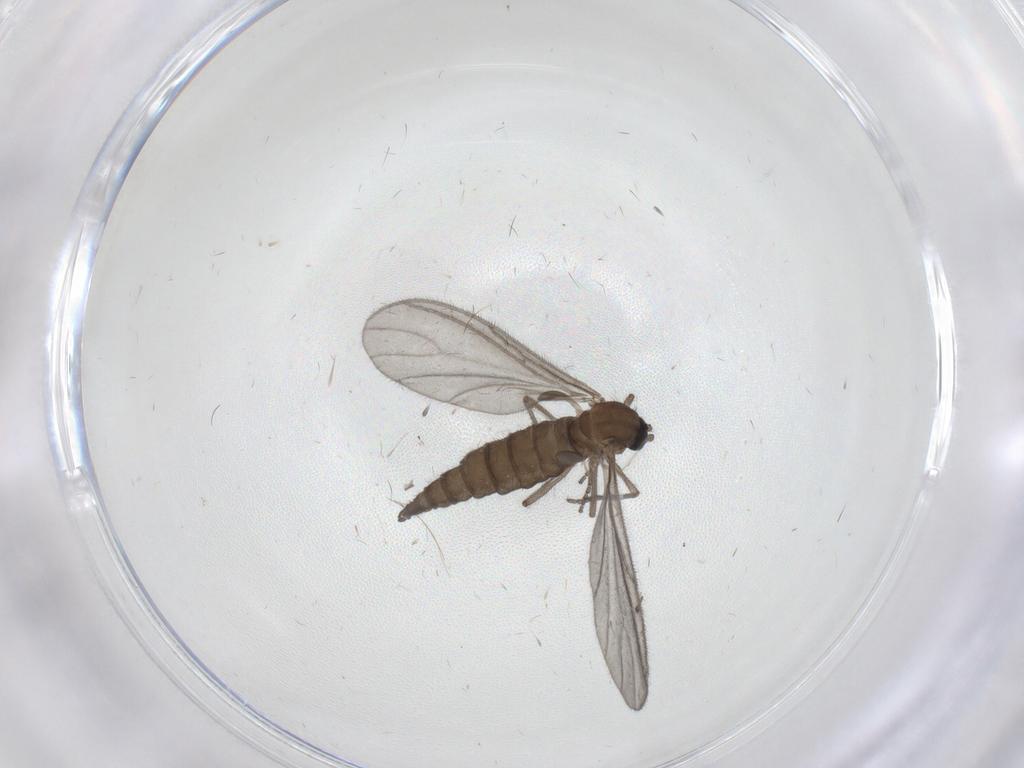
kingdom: Animalia
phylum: Arthropoda
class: Insecta
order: Diptera
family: Sciaridae
